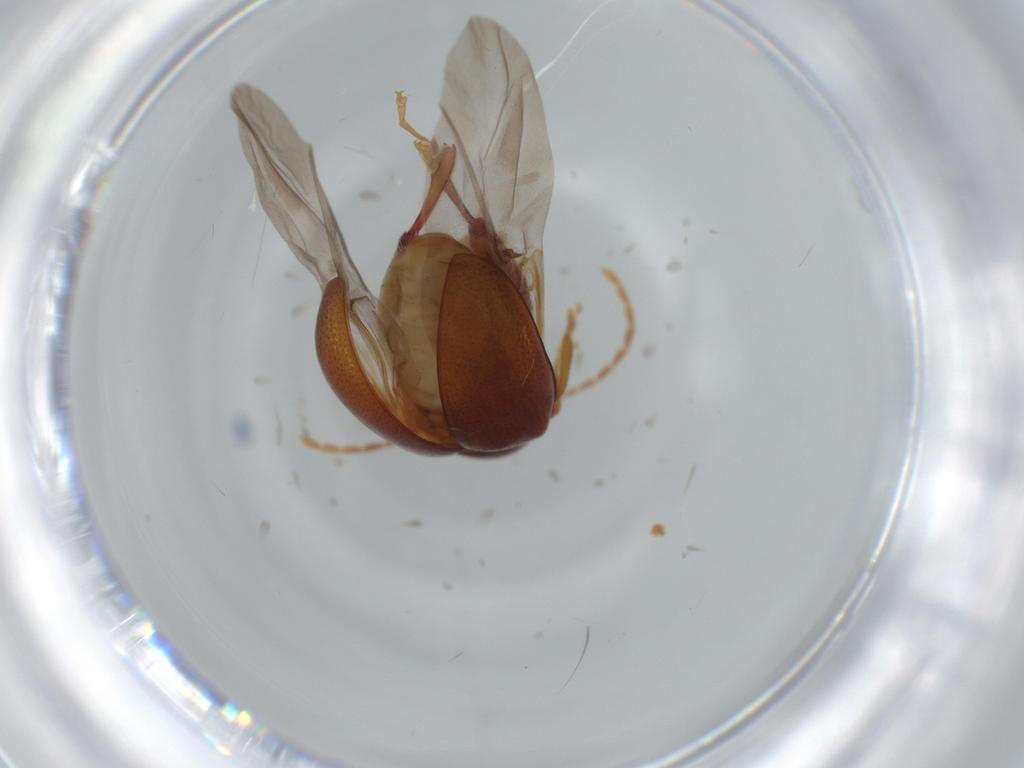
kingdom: Animalia
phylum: Arthropoda
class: Insecta
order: Coleoptera
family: Chrysomelidae
